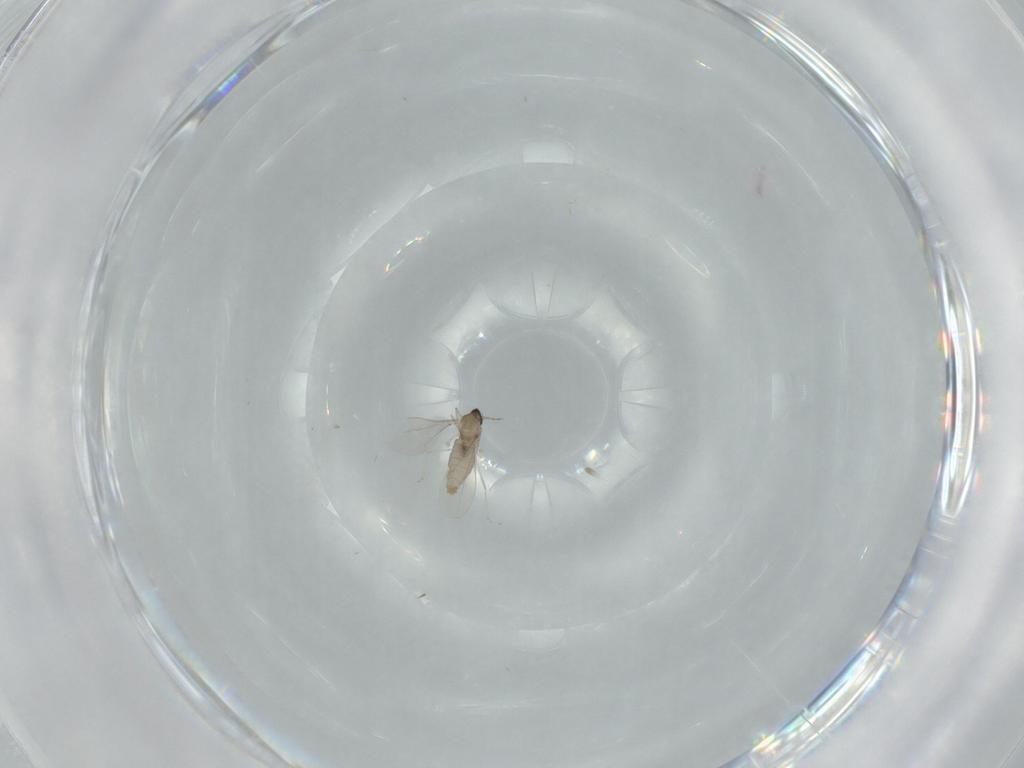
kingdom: Animalia
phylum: Arthropoda
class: Insecta
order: Diptera
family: Cecidomyiidae
